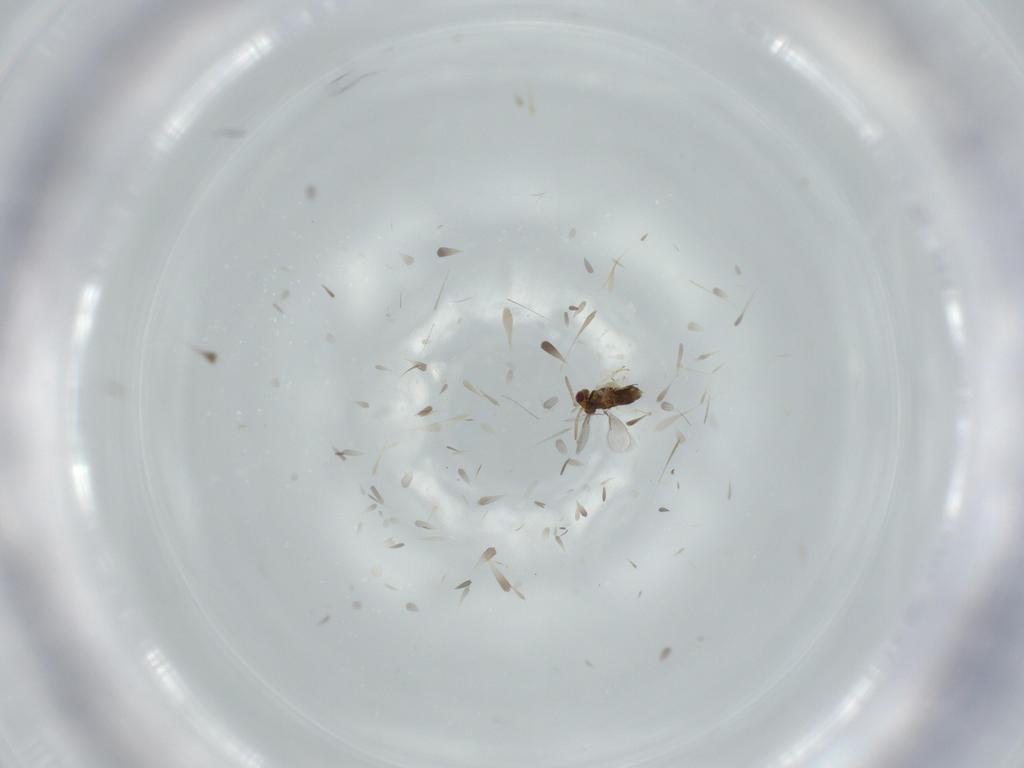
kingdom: Animalia
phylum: Arthropoda
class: Insecta
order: Hymenoptera
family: Aphelinidae
